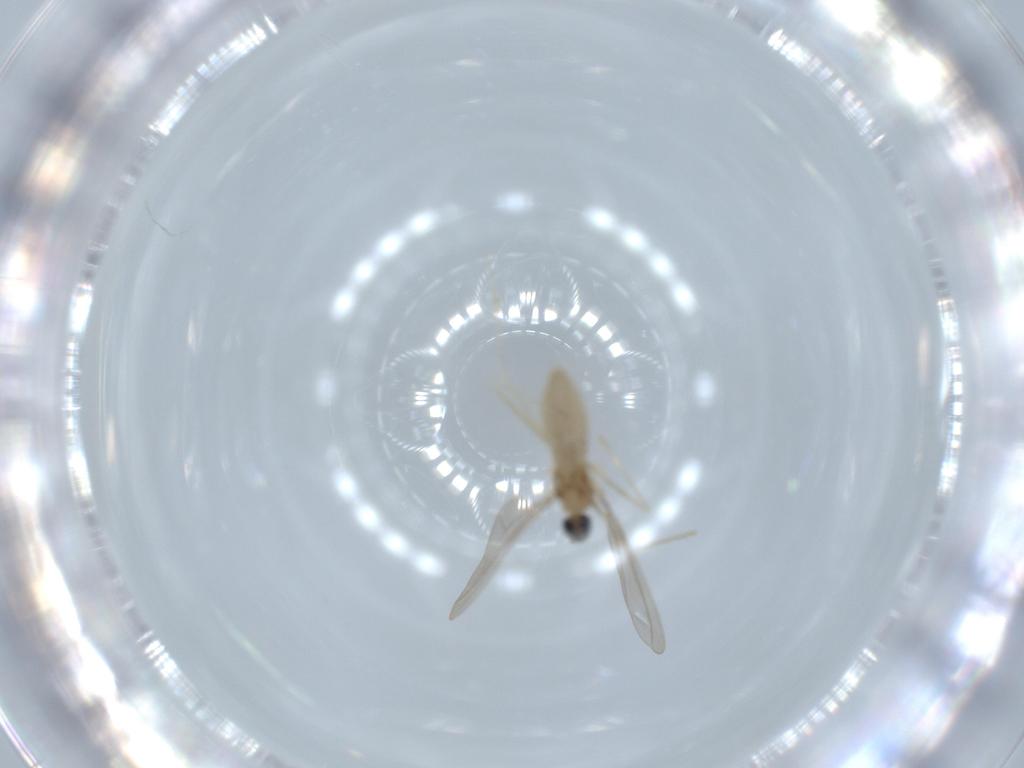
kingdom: Animalia
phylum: Arthropoda
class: Insecta
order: Diptera
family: Cecidomyiidae
